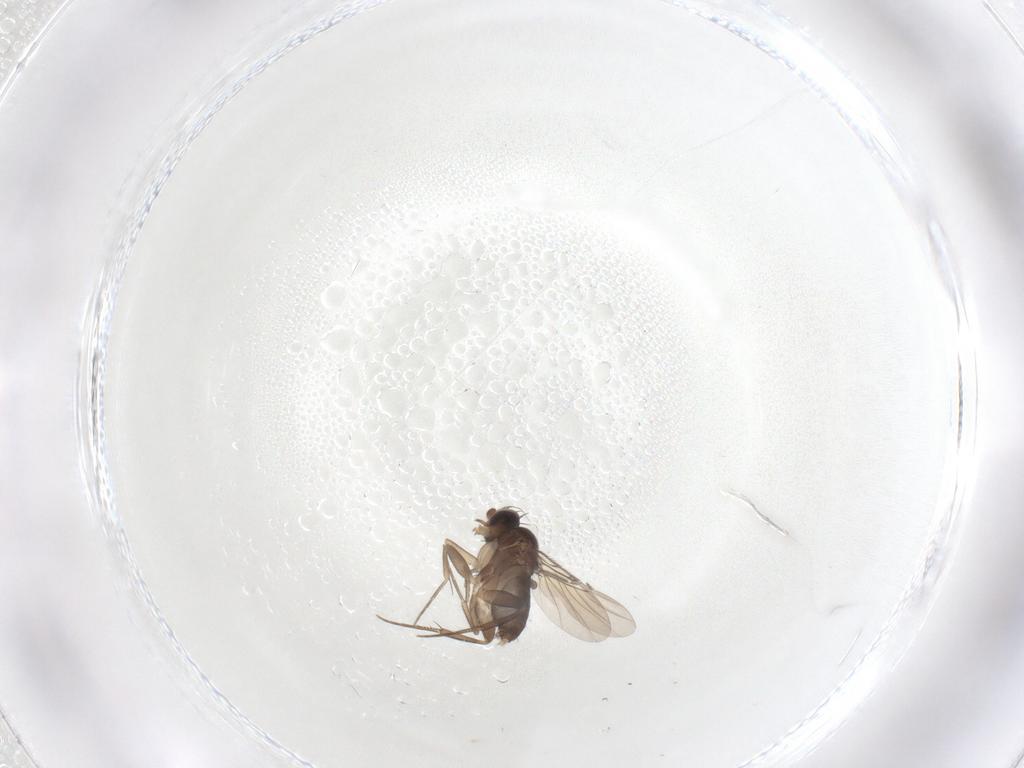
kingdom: Animalia
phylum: Arthropoda
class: Insecta
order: Diptera
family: Phoridae
